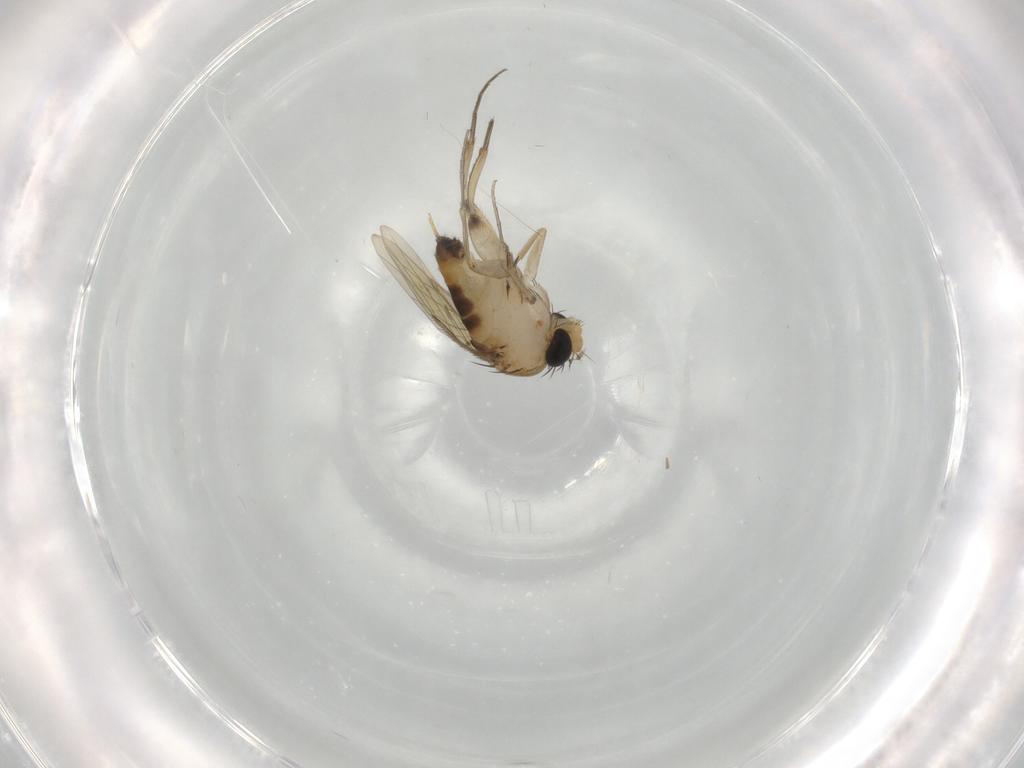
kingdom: Animalia
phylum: Arthropoda
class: Insecta
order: Diptera
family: Phoridae
